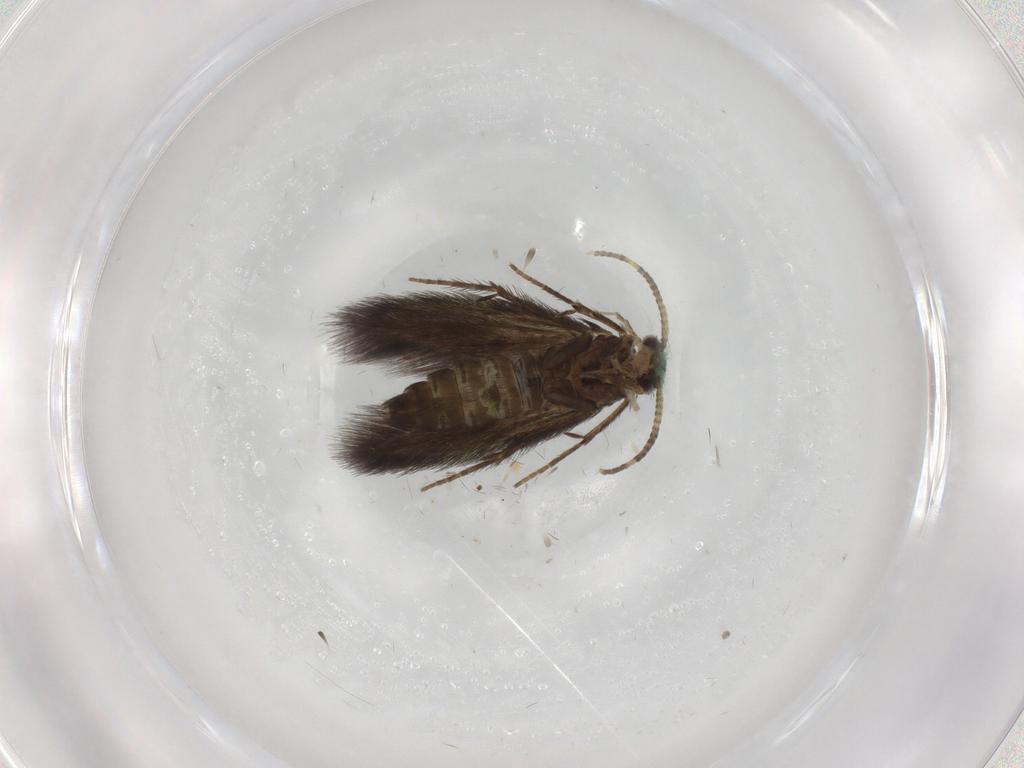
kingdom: Animalia
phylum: Arthropoda
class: Insecta
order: Trichoptera
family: Hydroptilidae
